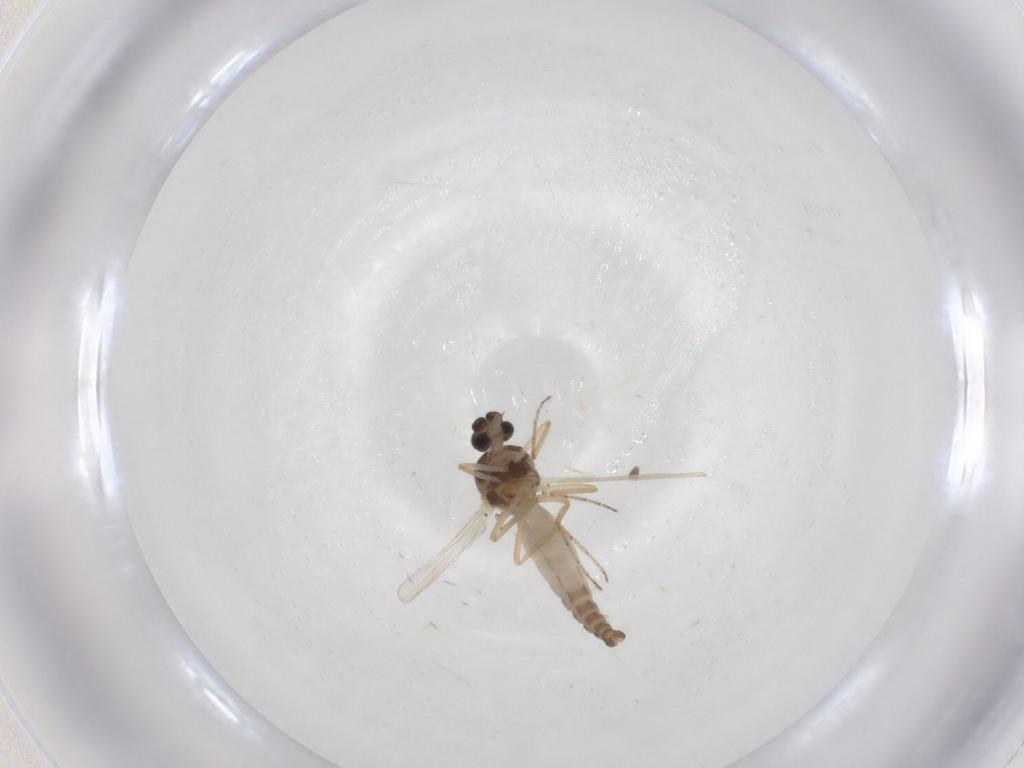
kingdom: Animalia
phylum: Arthropoda
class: Insecta
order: Diptera
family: Ceratopogonidae
